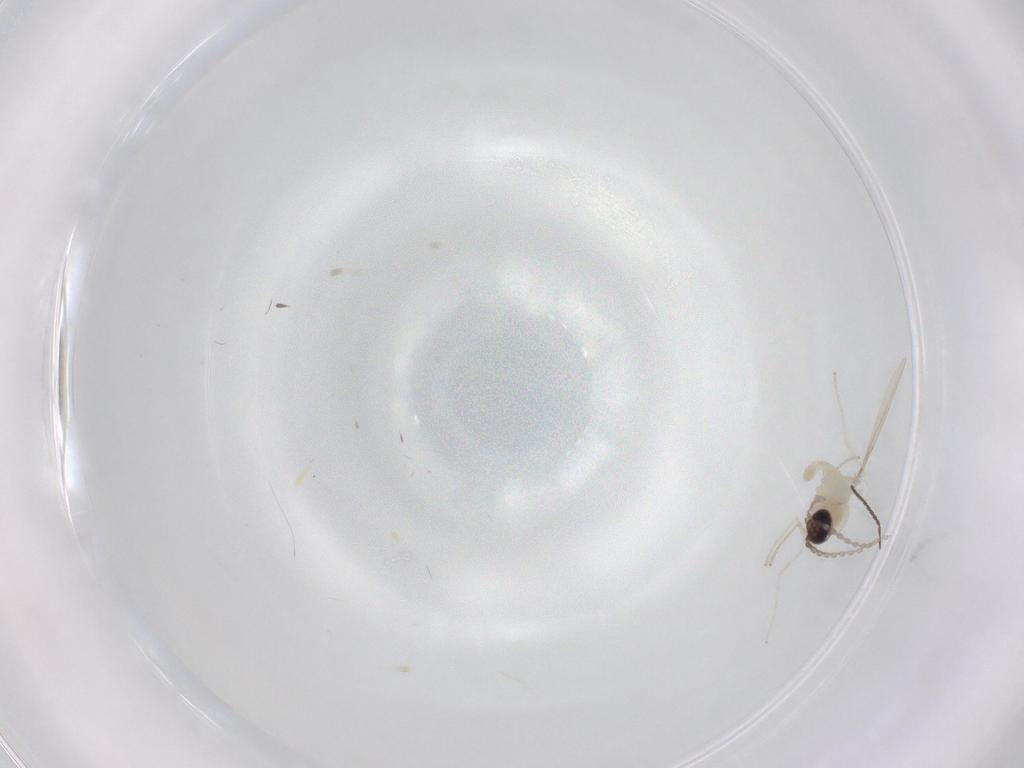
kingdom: Animalia
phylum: Arthropoda
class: Insecta
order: Diptera
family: Cecidomyiidae
